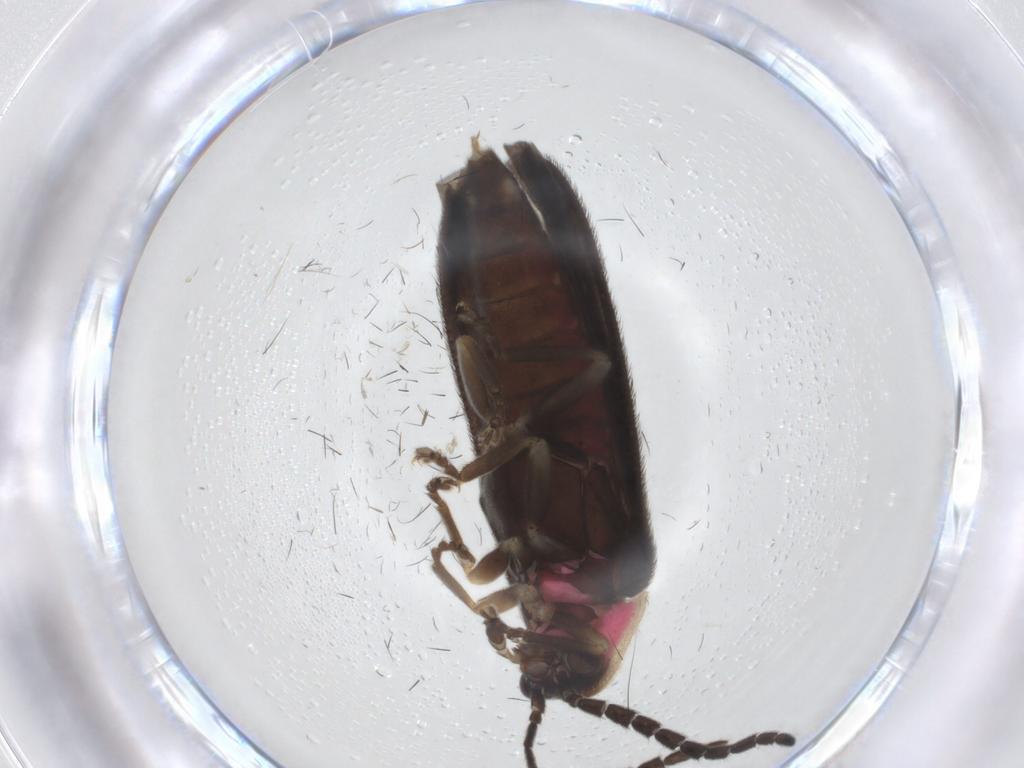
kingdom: Animalia
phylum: Arthropoda
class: Insecta
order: Coleoptera
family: Lampyridae
